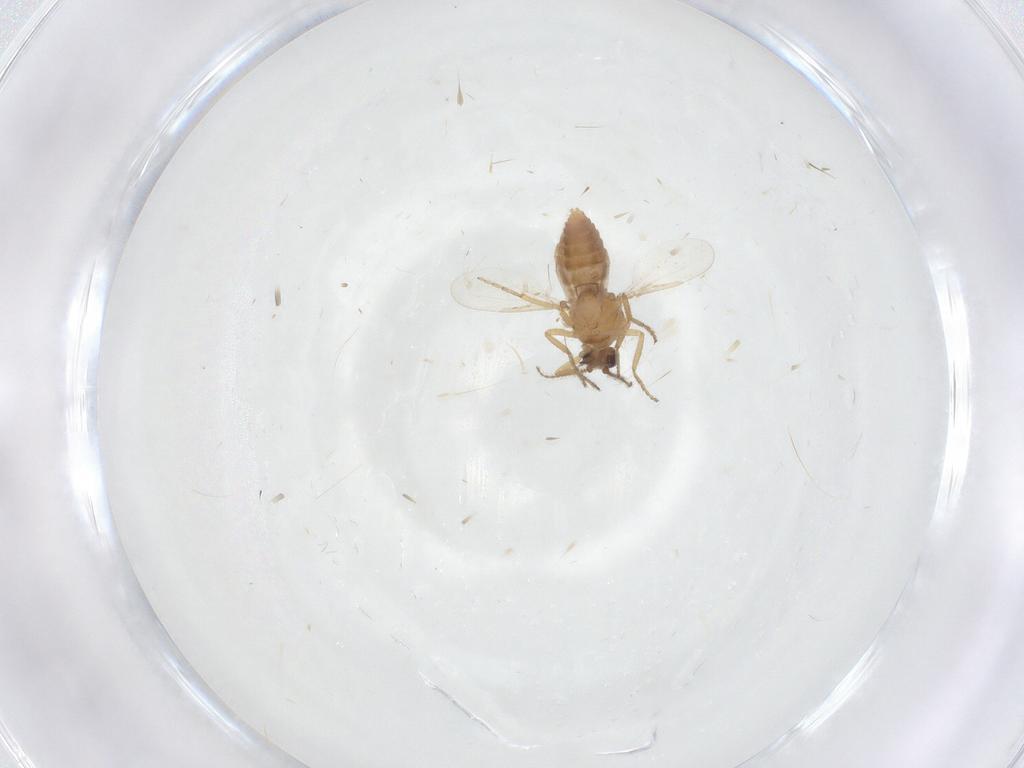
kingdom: Animalia
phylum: Arthropoda
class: Insecta
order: Diptera
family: Ceratopogonidae
